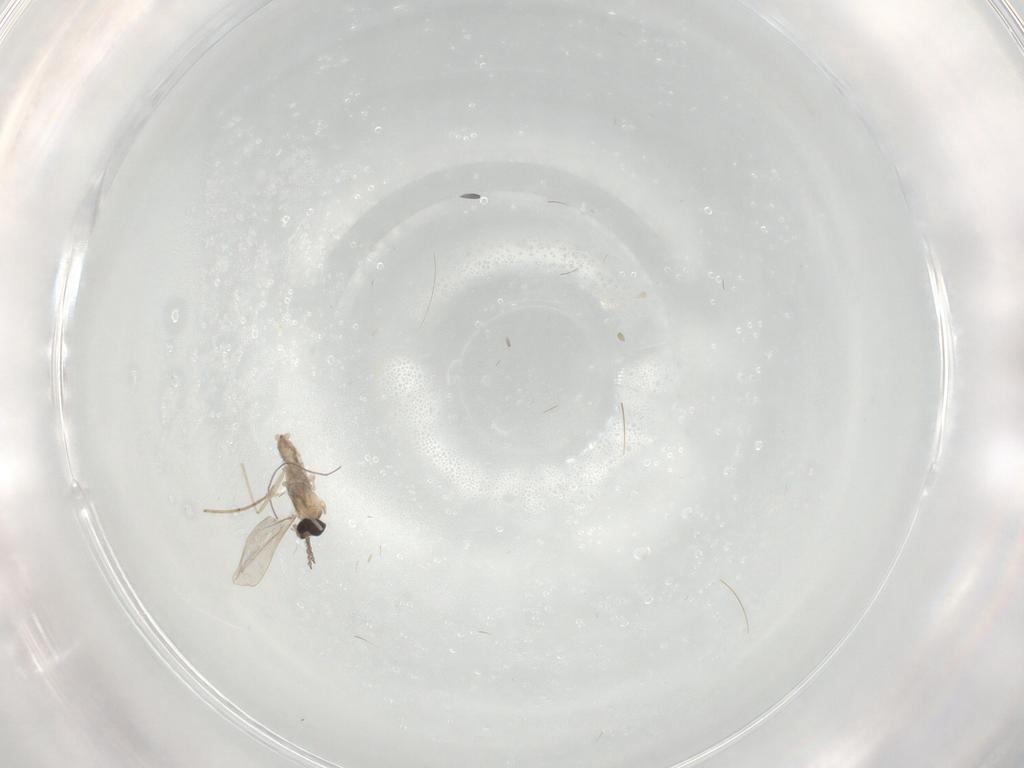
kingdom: Animalia
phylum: Arthropoda
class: Insecta
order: Diptera
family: Cecidomyiidae
